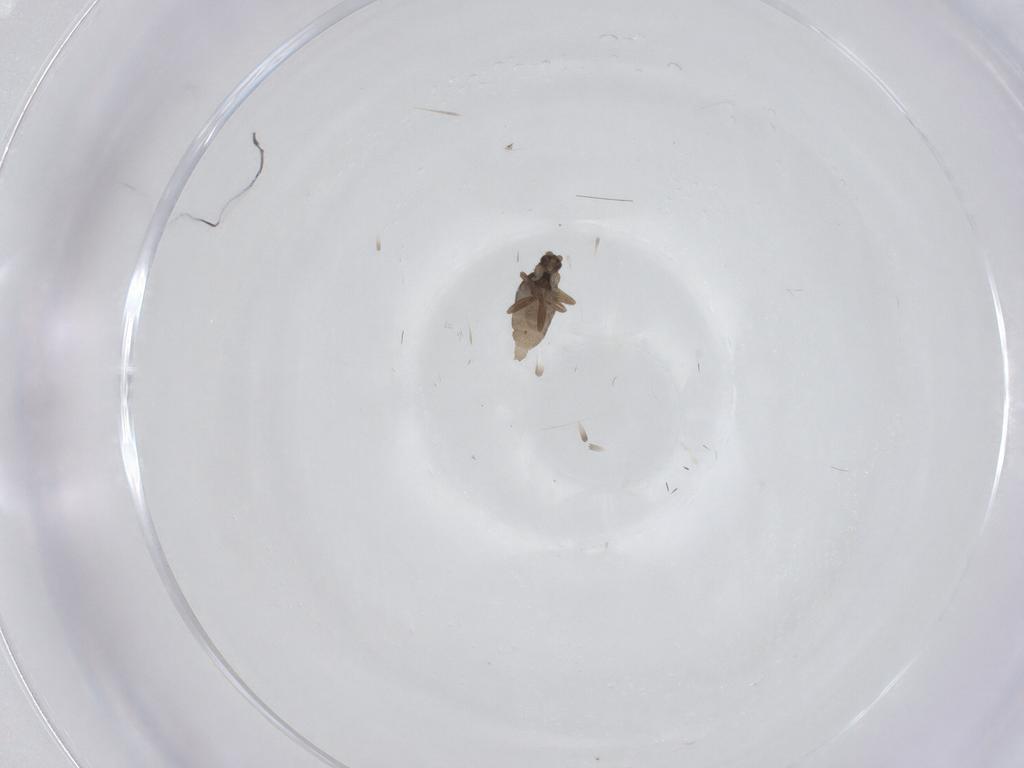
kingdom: Animalia
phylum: Arthropoda
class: Insecta
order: Diptera
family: Phoridae
